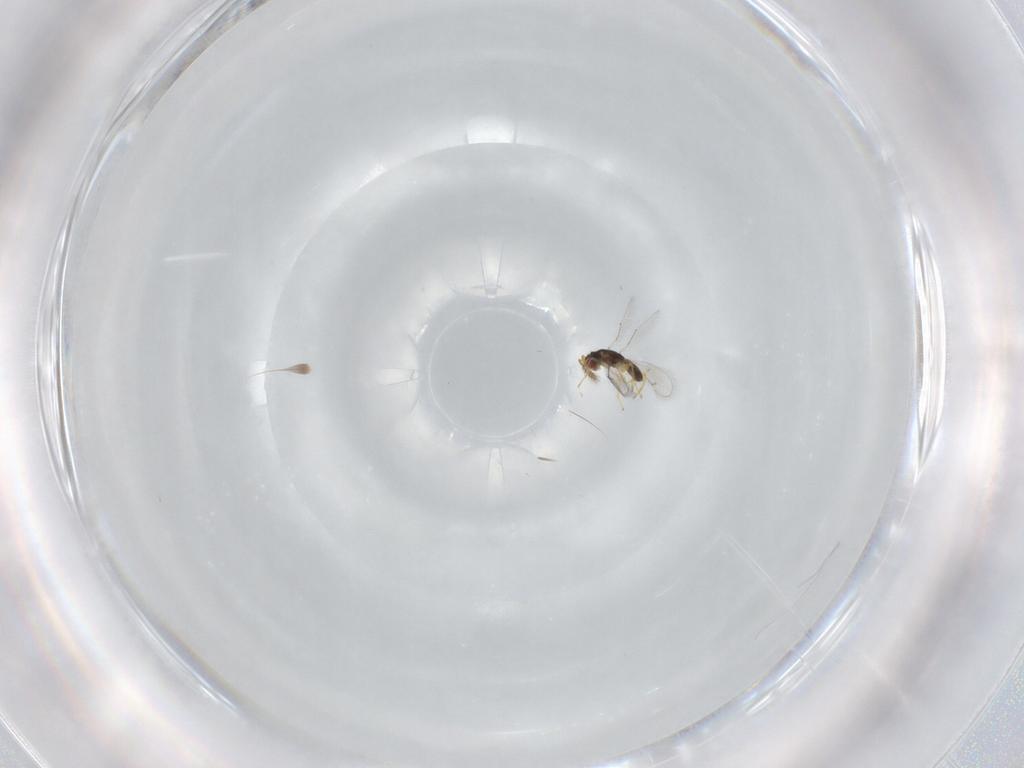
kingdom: Animalia
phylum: Arthropoda
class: Insecta
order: Hymenoptera
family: Eulophidae
